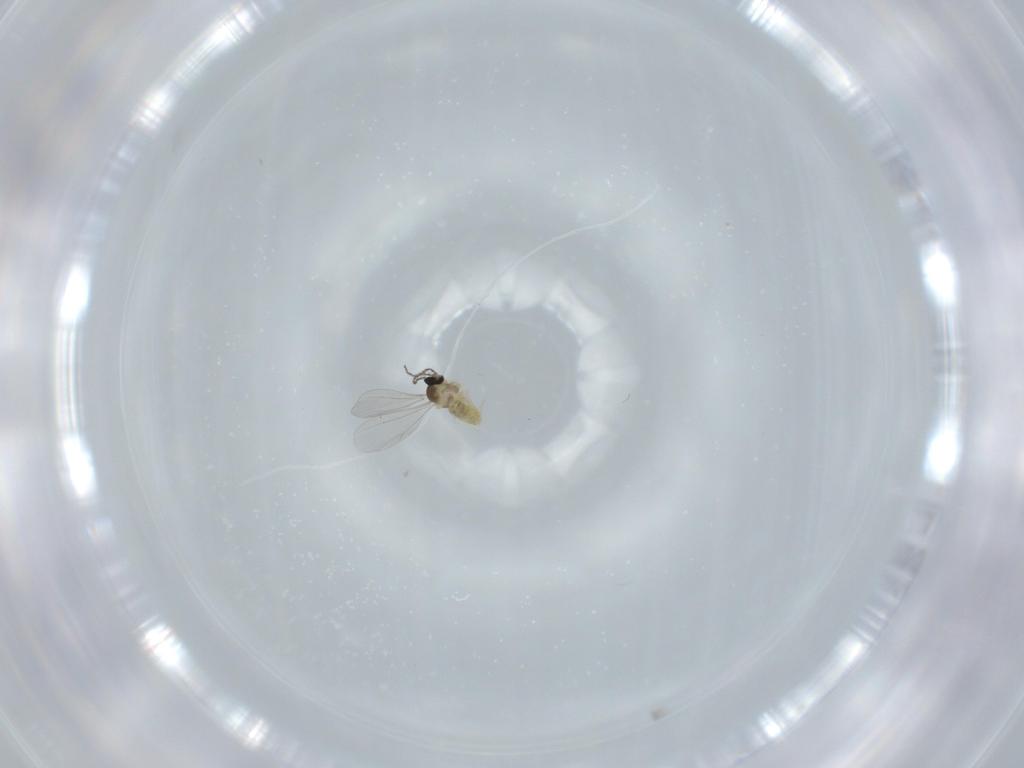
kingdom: Animalia
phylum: Arthropoda
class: Insecta
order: Diptera
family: Cecidomyiidae
